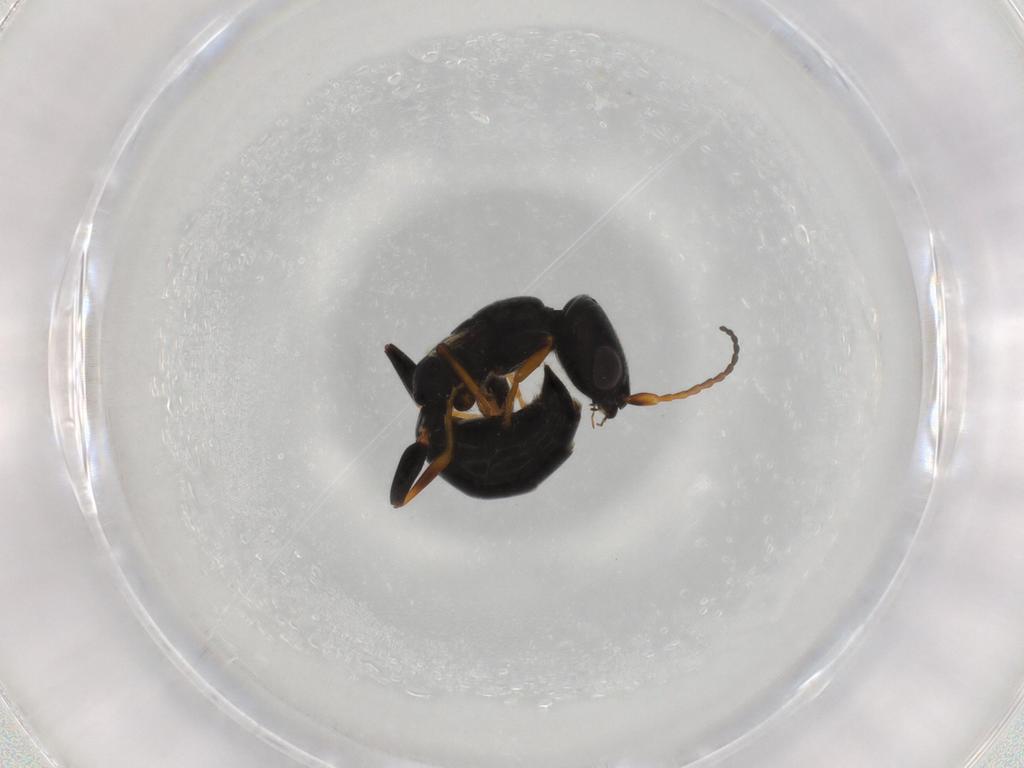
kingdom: Animalia
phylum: Arthropoda
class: Insecta
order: Hymenoptera
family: Bethylidae
